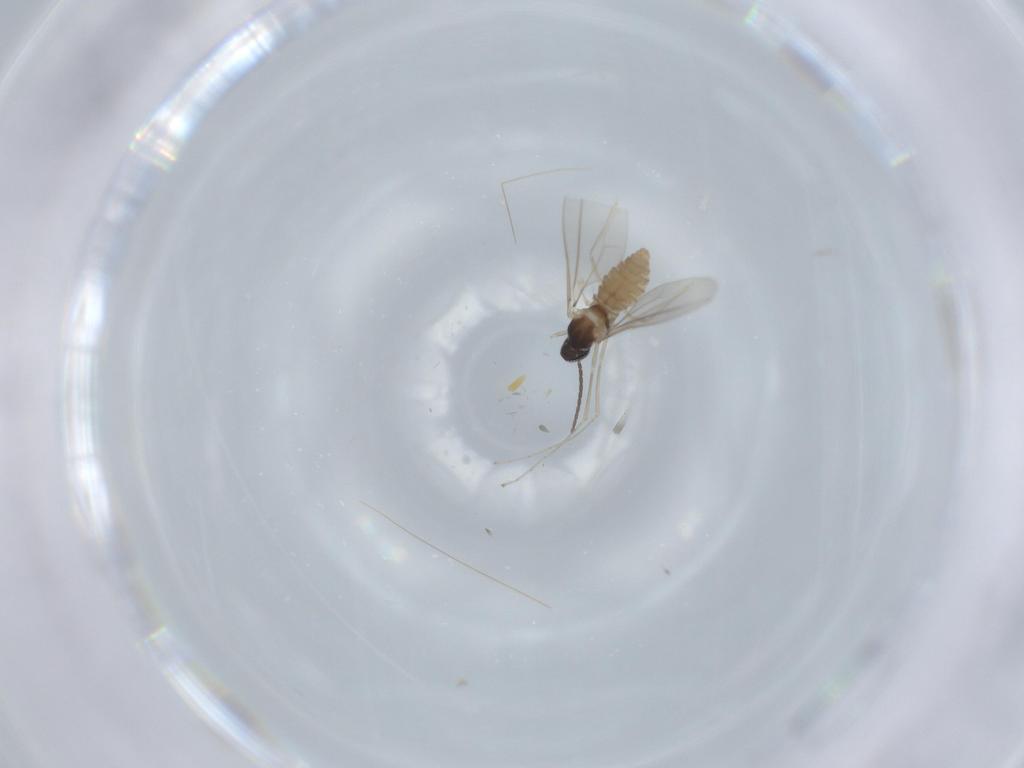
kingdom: Animalia
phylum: Arthropoda
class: Insecta
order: Diptera
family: Cecidomyiidae
